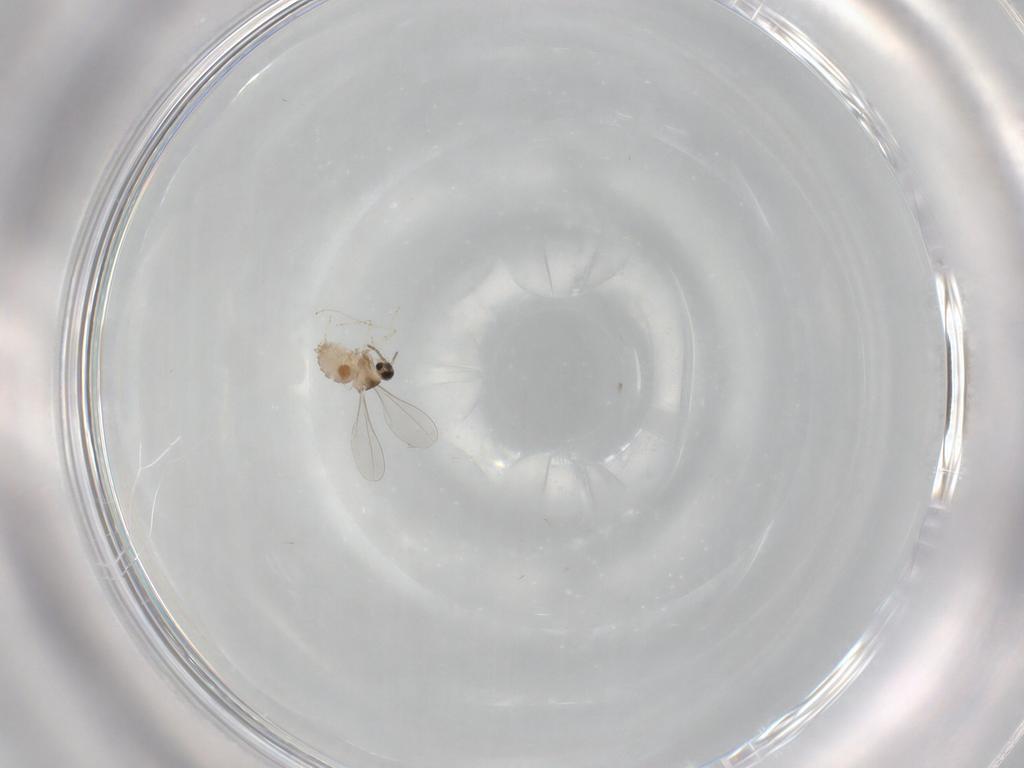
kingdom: Animalia
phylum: Arthropoda
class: Insecta
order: Diptera
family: Cecidomyiidae
